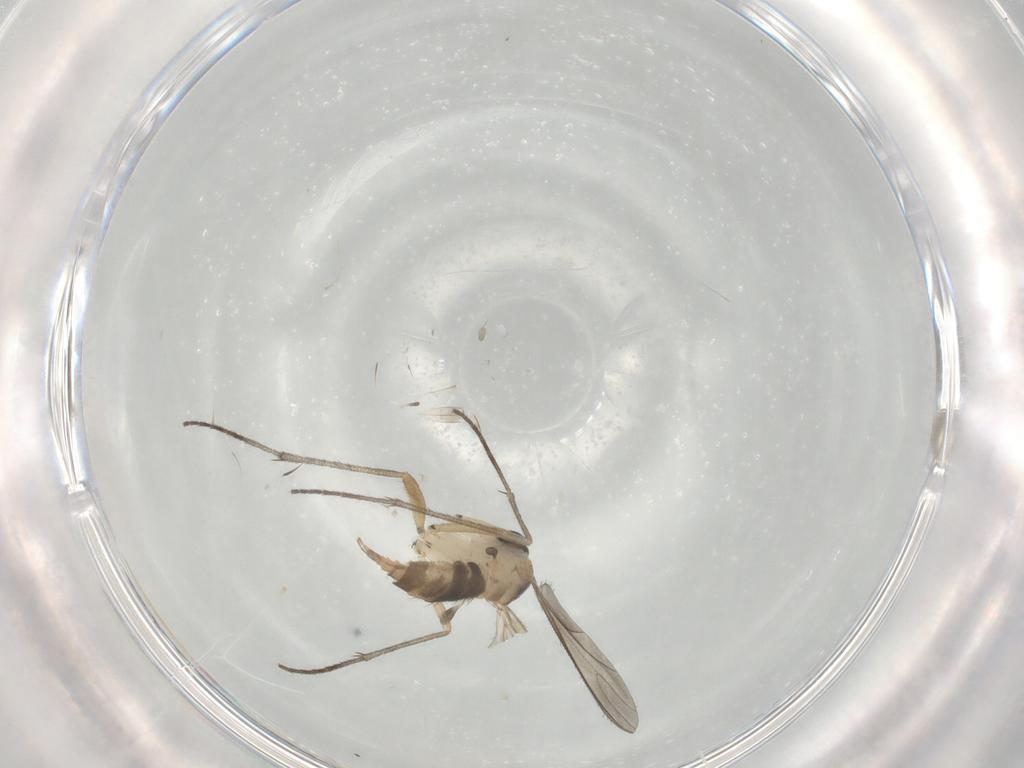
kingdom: Animalia
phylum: Arthropoda
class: Insecta
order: Diptera
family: Sciaridae
